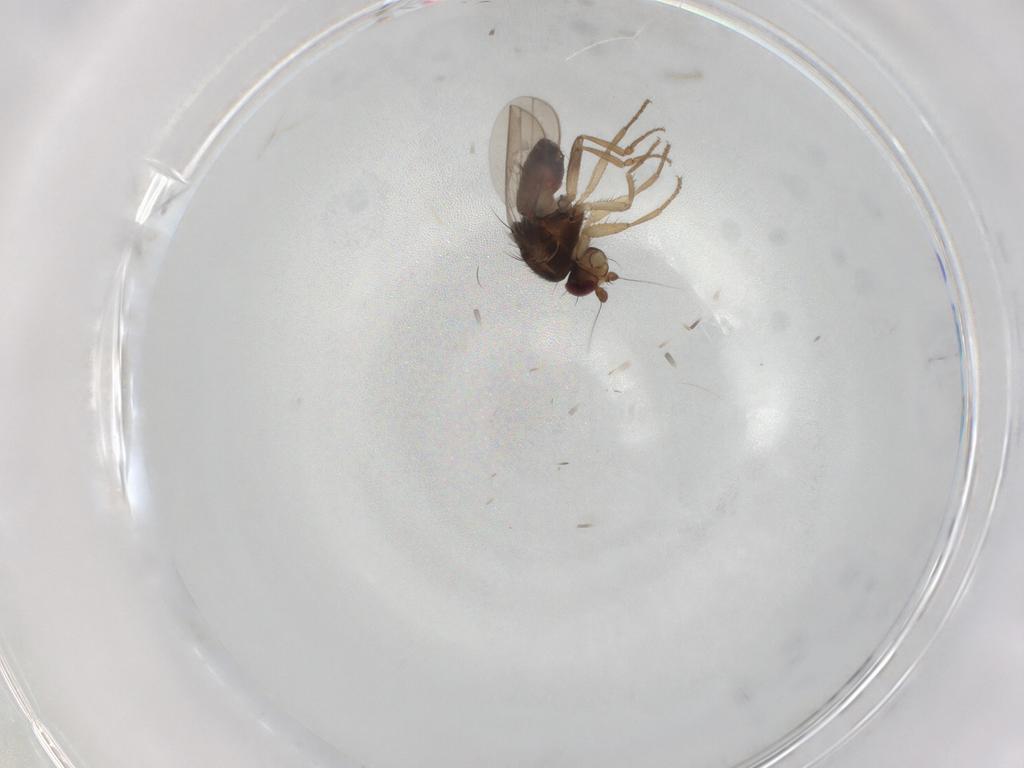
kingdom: Animalia
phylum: Arthropoda
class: Insecta
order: Diptera
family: Sphaeroceridae
